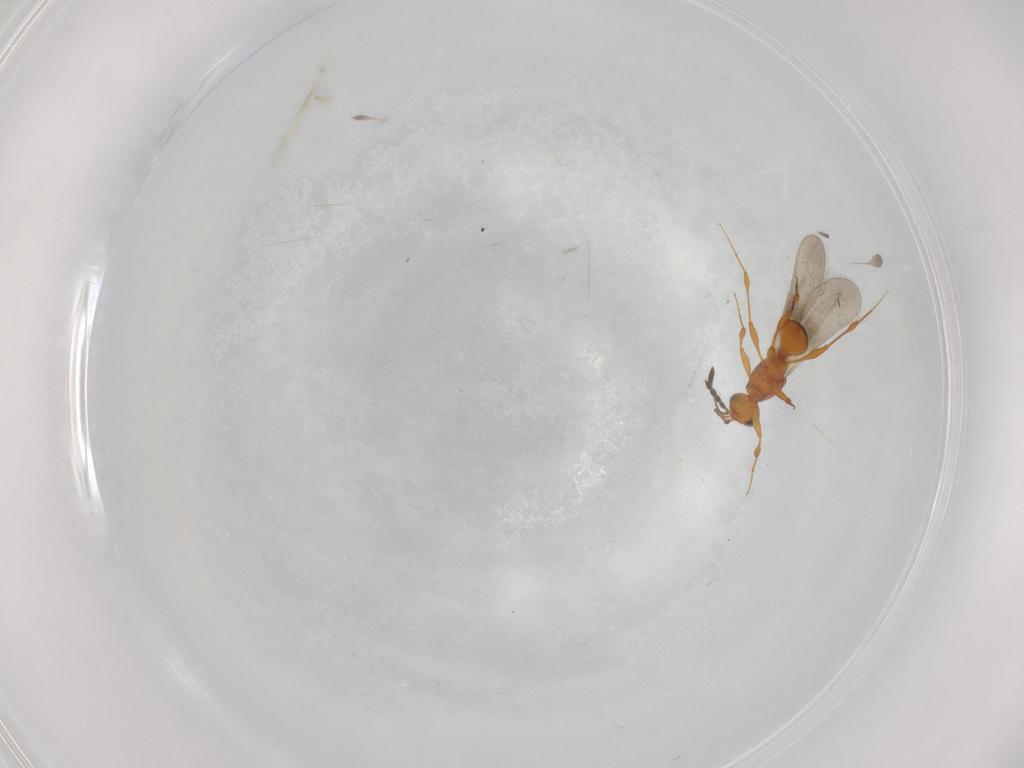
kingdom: Animalia
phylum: Arthropoda
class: Insecta
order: Hymenoptera
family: Platygastridae
